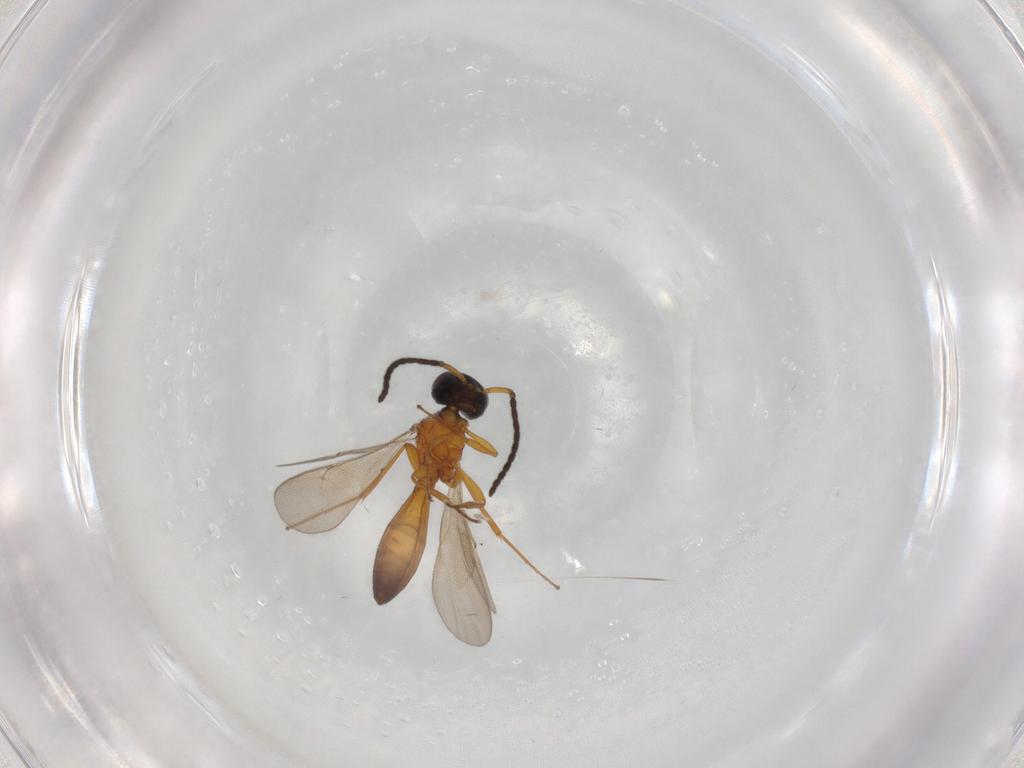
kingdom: Animalia
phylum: Arthropoda
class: Insecta
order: Hymenoptera
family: Scelionidae
